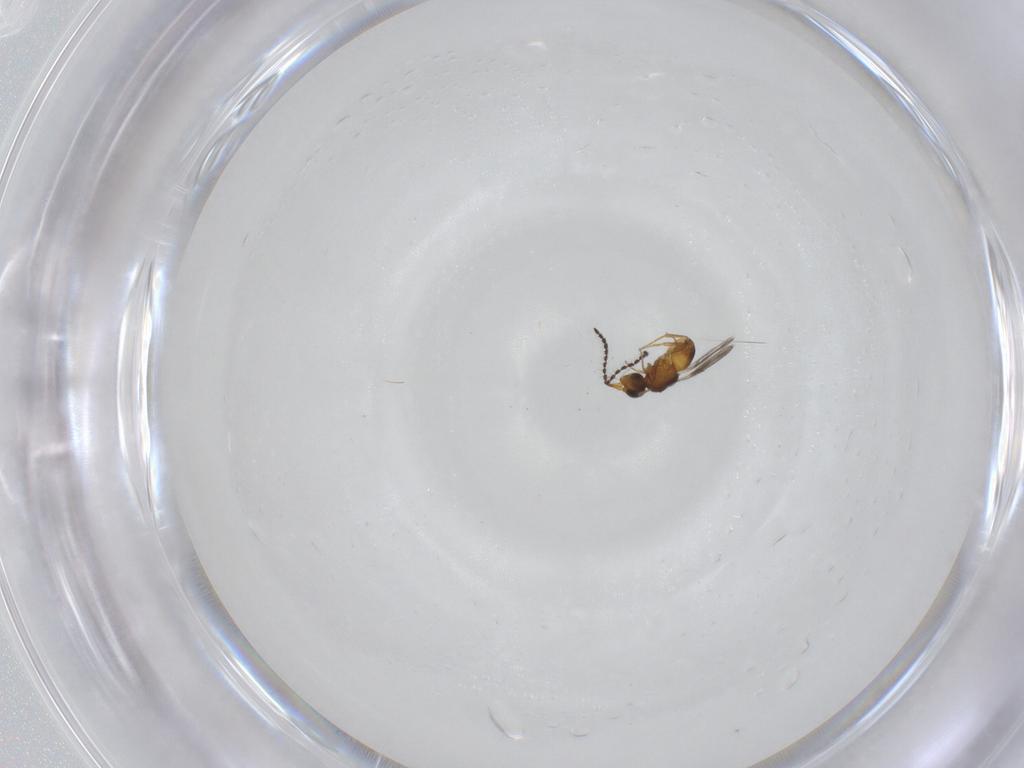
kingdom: Animalia
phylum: Arthropoda
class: Insecta
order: Hymenoptera
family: Ceraphronidae
